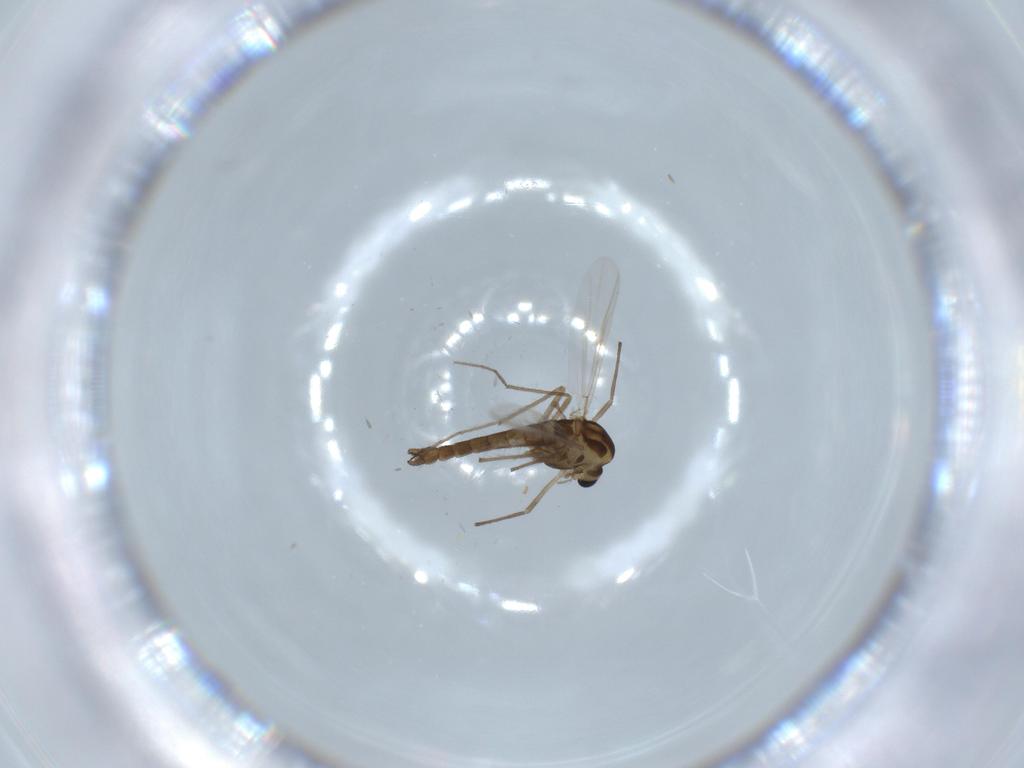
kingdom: Animalia
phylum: Arthropoda
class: Insecta
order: Diptera
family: Chironomidae
